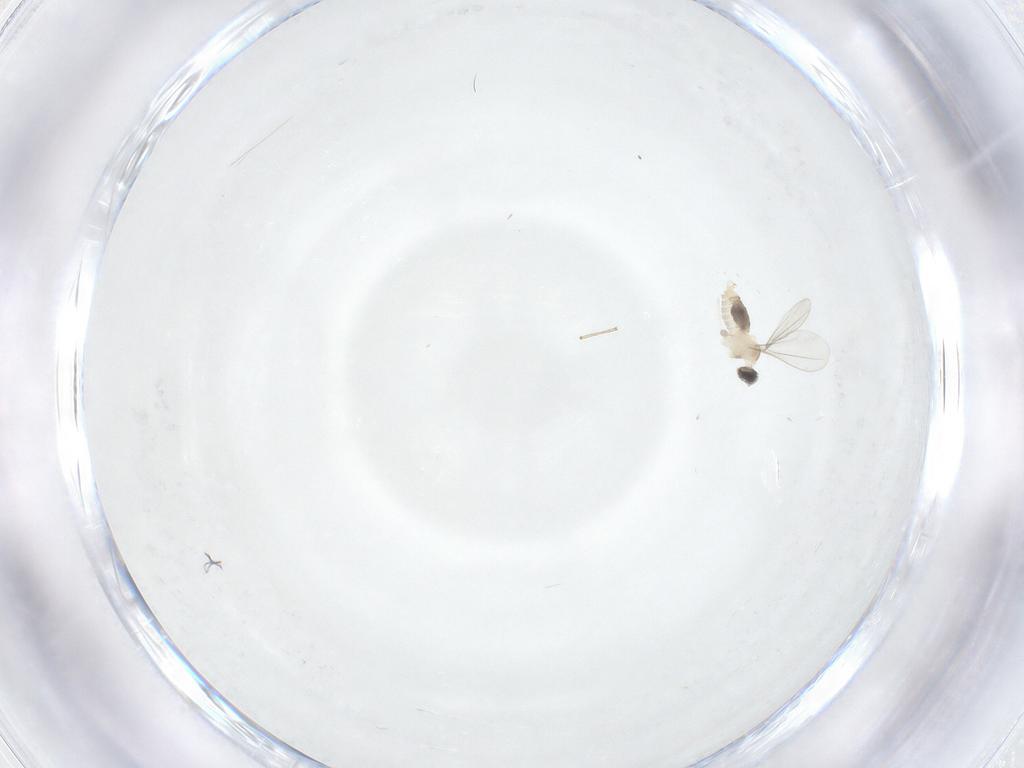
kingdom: Animalia
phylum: Arthropoda
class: Insecta
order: Diptera
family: Cecidomyiidae
